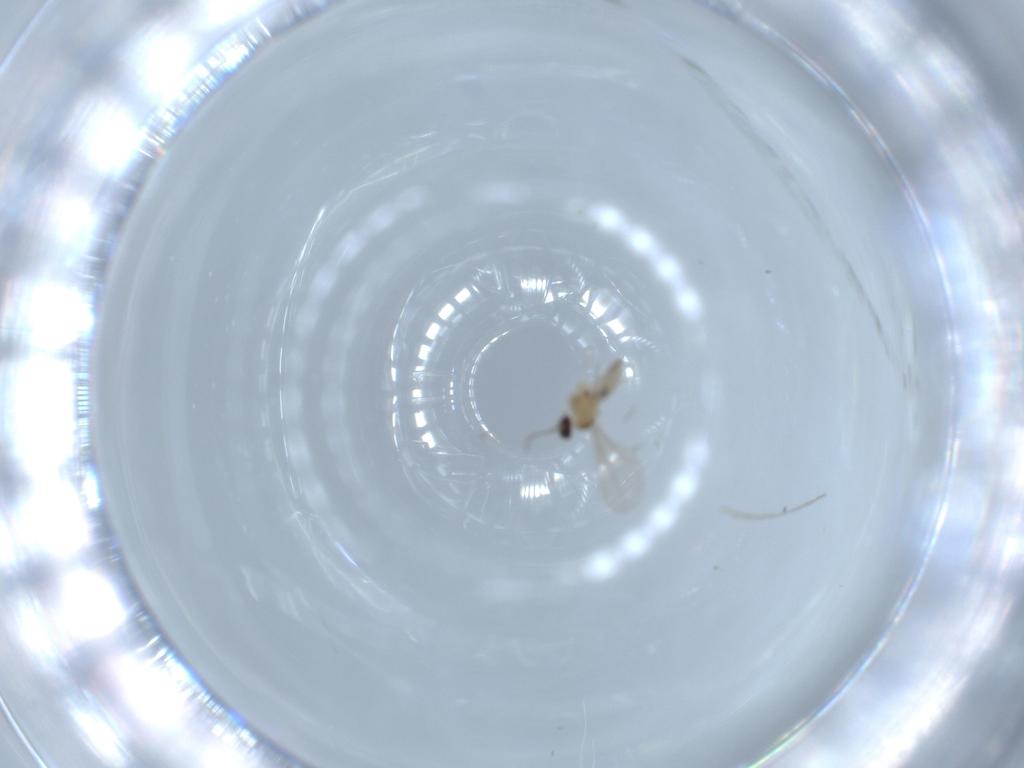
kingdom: Animalia
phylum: Arthropoda
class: Insecta
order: Diptera
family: Cecidomyiidae
